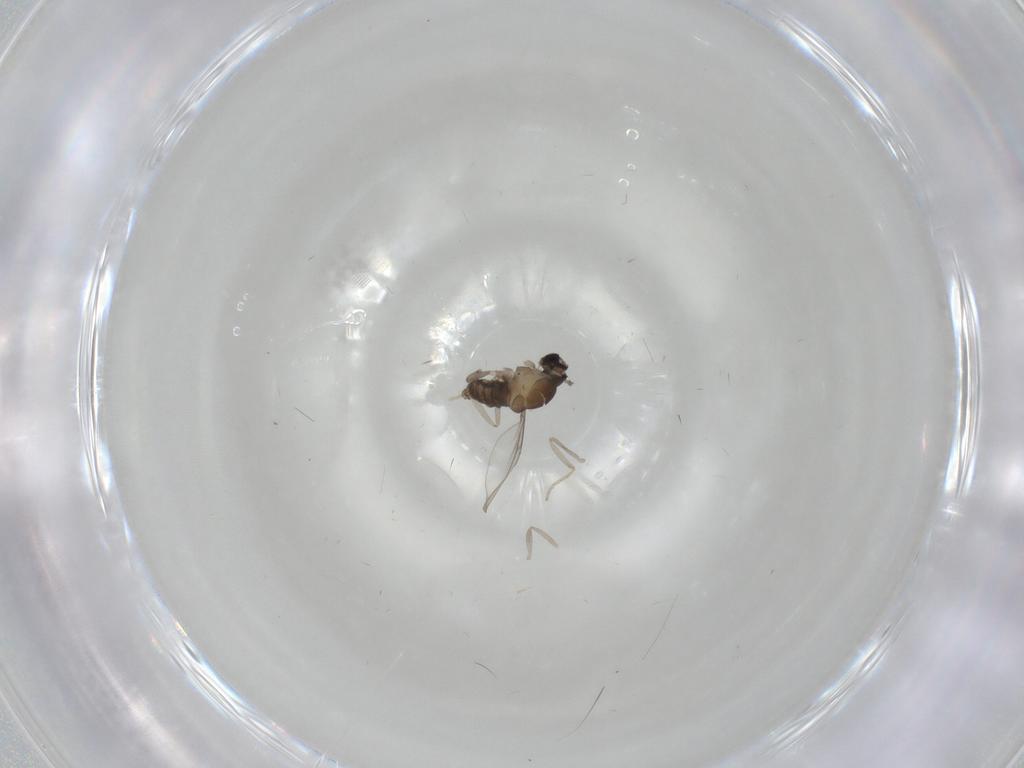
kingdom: Animalia
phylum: Arthropoda
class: Insecta
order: Diptera
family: Cecidomyiidae
